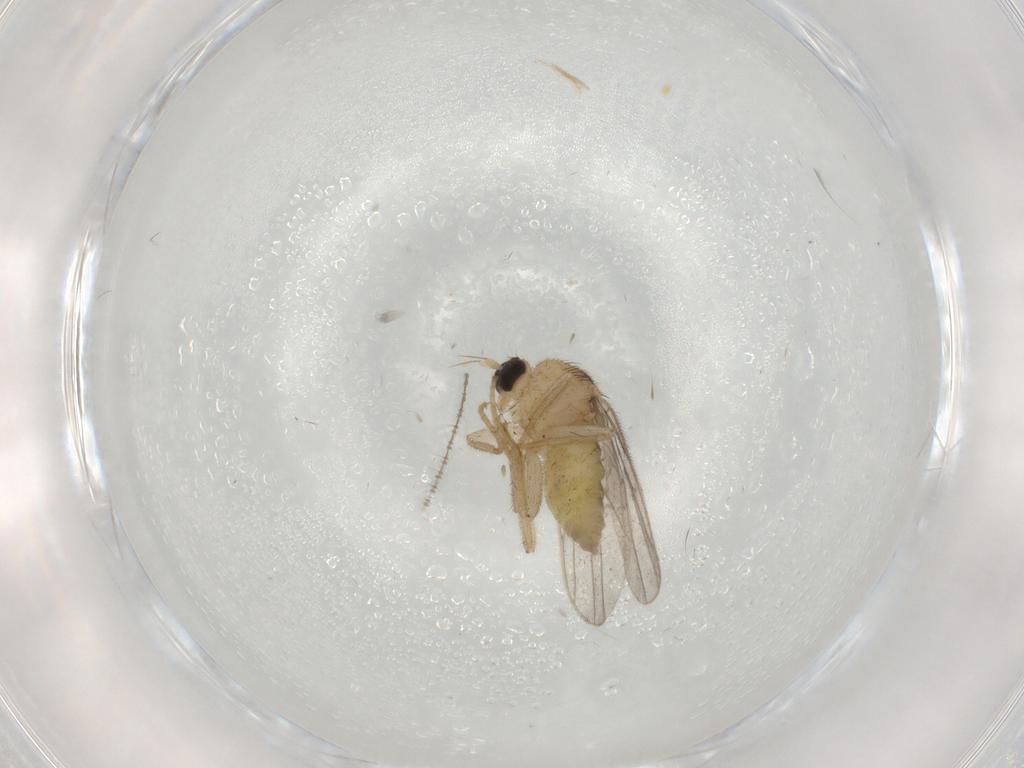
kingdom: Animalia
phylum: Arthropoda
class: Insecta
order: Diptera
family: Hybotidae
